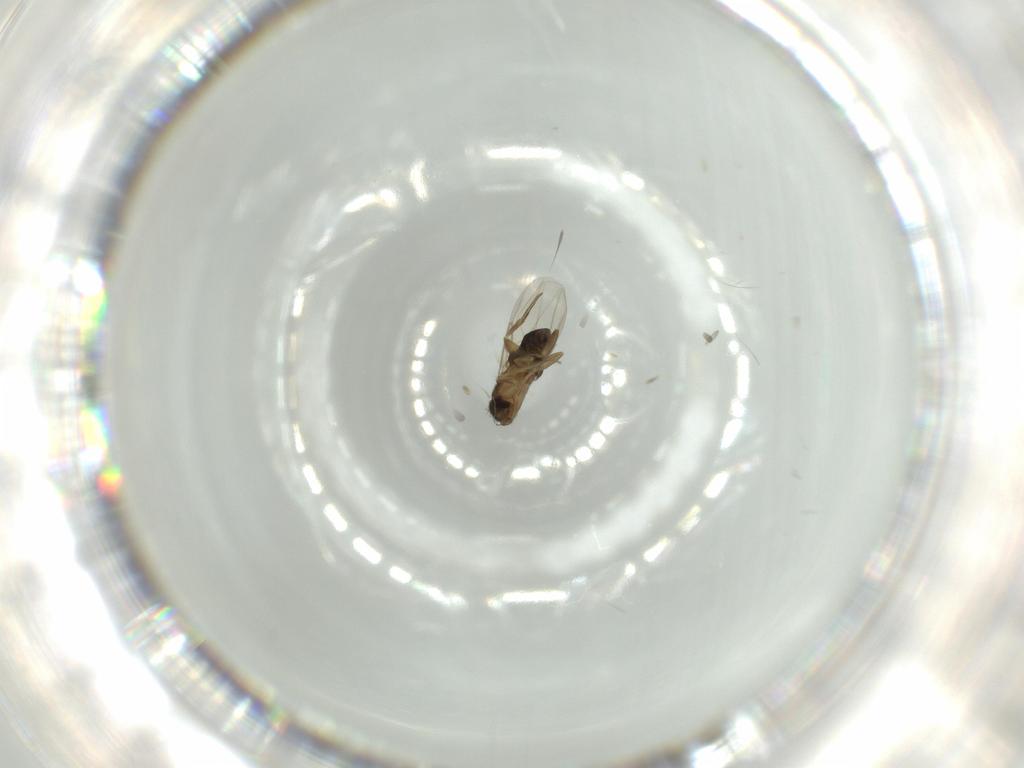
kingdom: Animalia
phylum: Arthropoda
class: Insecta
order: Diptera
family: Phoridae
